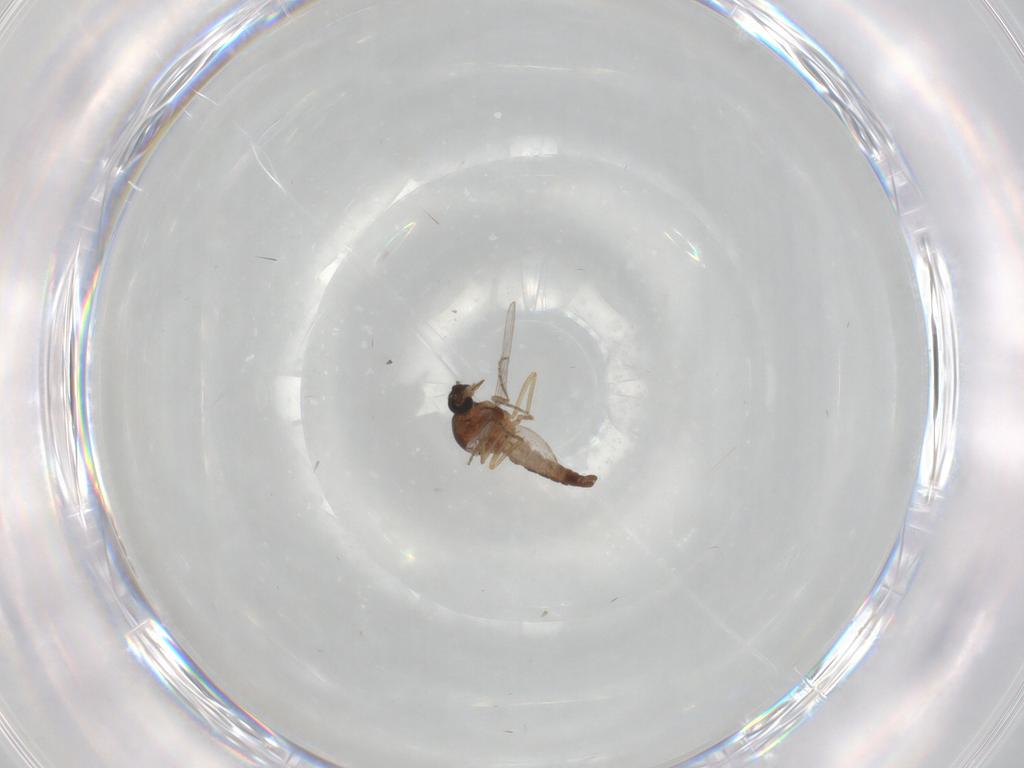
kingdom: Animalia
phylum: Arthropoda
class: Insecta
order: Diptera
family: Ceratopogonidae
